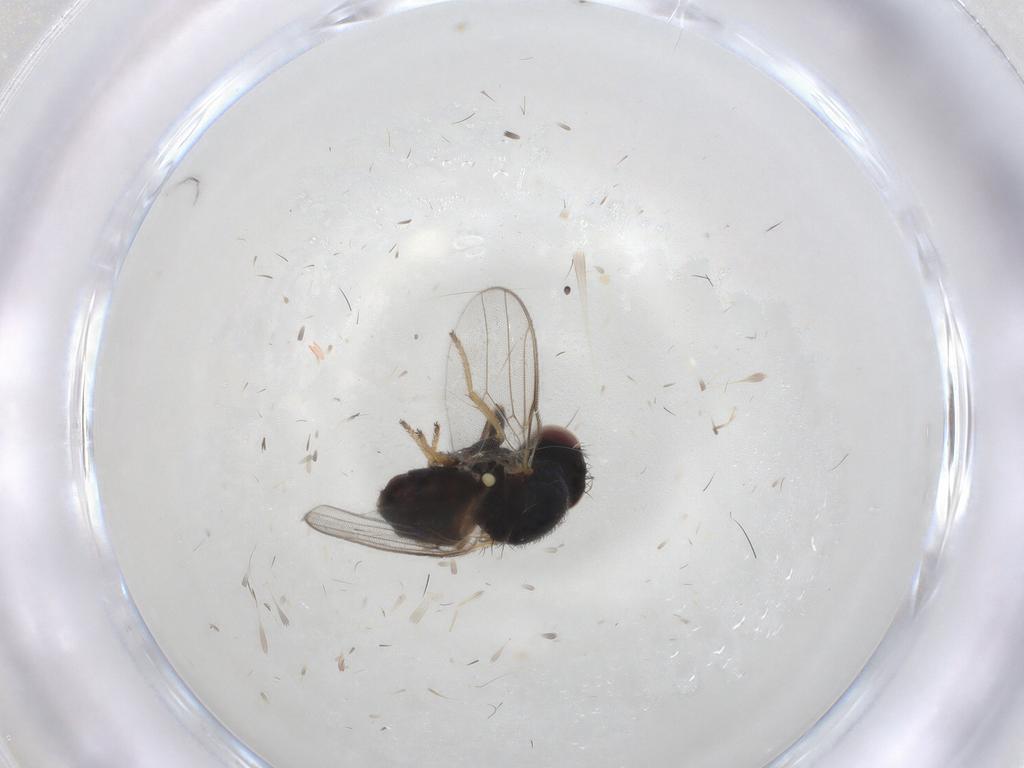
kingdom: Animalia
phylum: Arthropoda
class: Insecta
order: Diptera
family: Chloropidae
